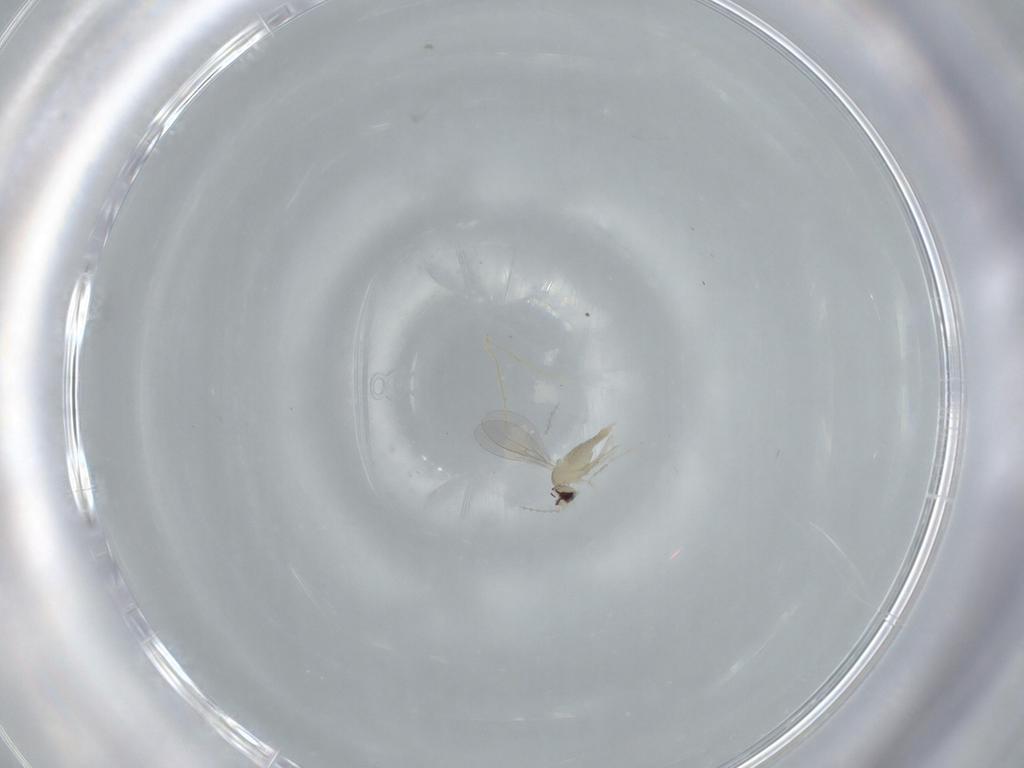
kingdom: Animalia
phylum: Arthropoda
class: Insecta
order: Diptera
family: Cecidomyiidae
